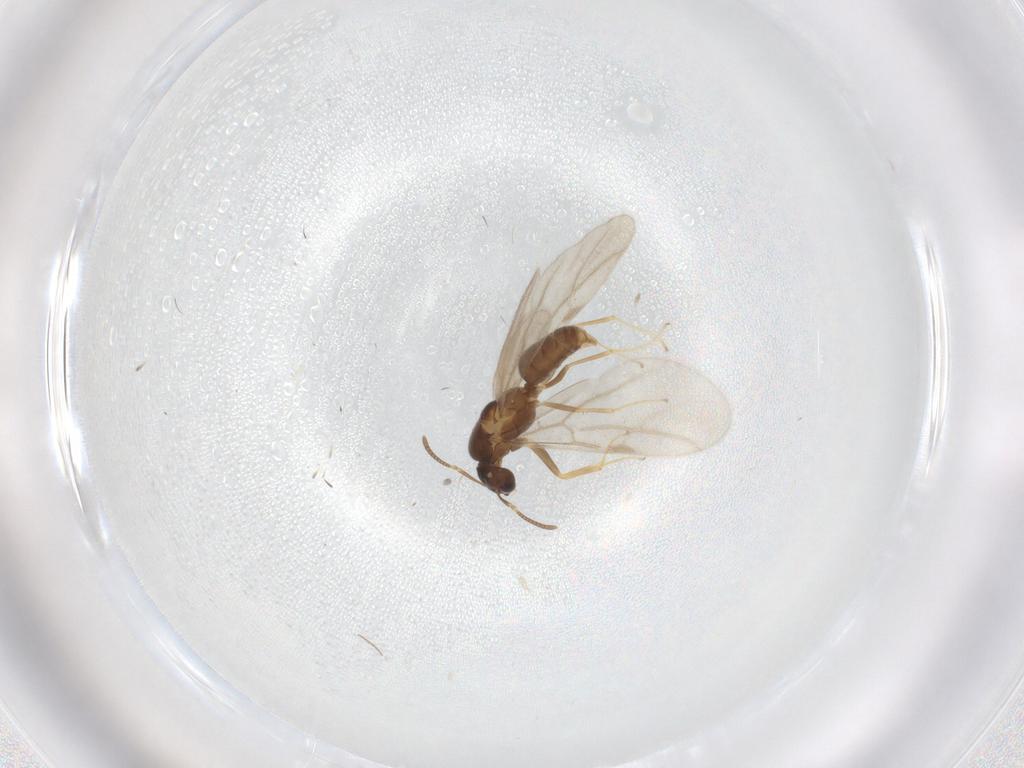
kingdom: Animalia
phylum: Arthropoda
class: Insecta
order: Hymenoptera
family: Formicidae
